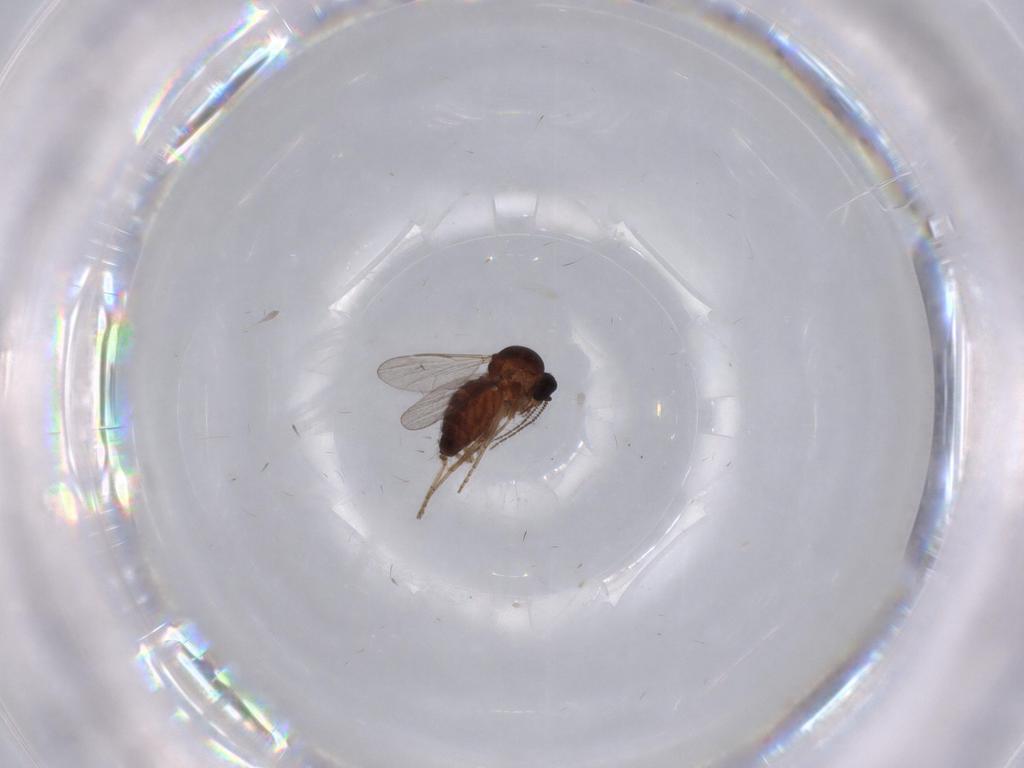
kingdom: Animalia
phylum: Arthropoda
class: Insecta
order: Diptera
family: Ceratopogonidae
